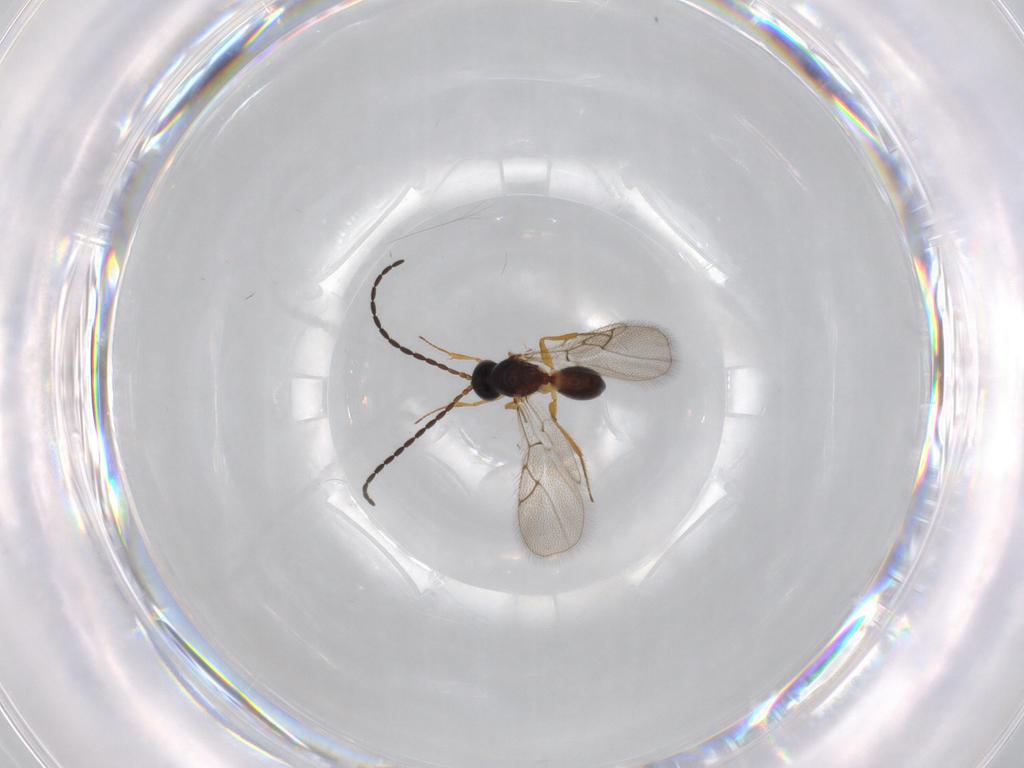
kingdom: Animalia
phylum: Arthropoda
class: Insecta
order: Hymenoptera
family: Figitidae
